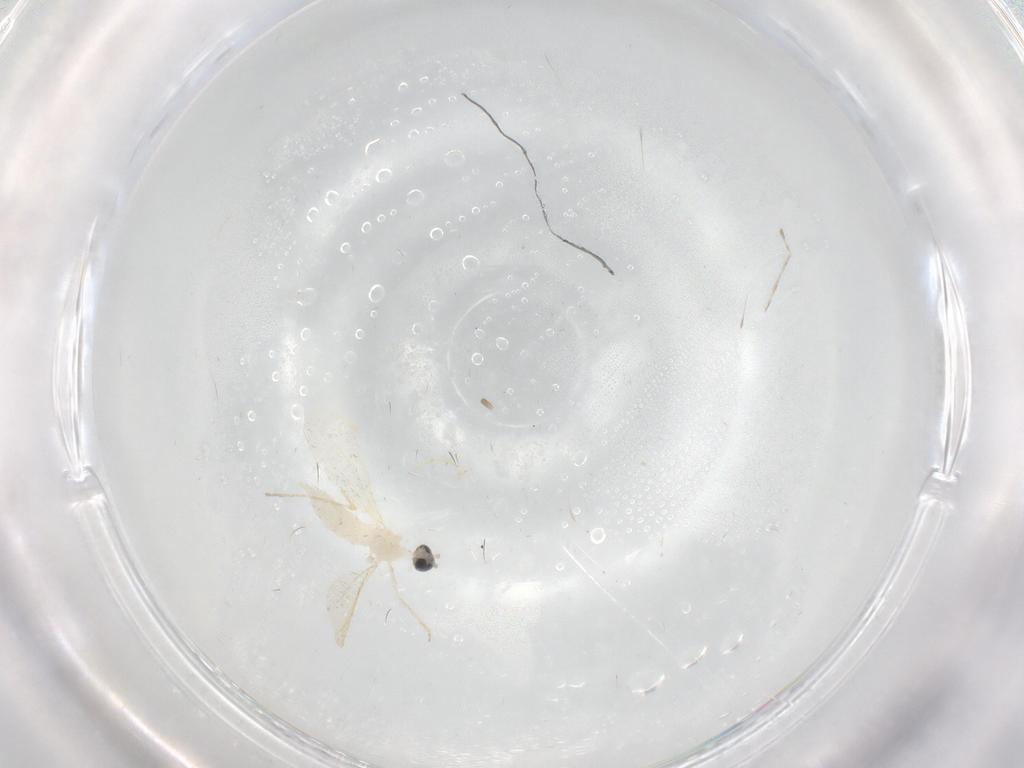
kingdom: Animalia
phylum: Arthropoda
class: Insecta
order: Diptera
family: Cecidomyiidae
